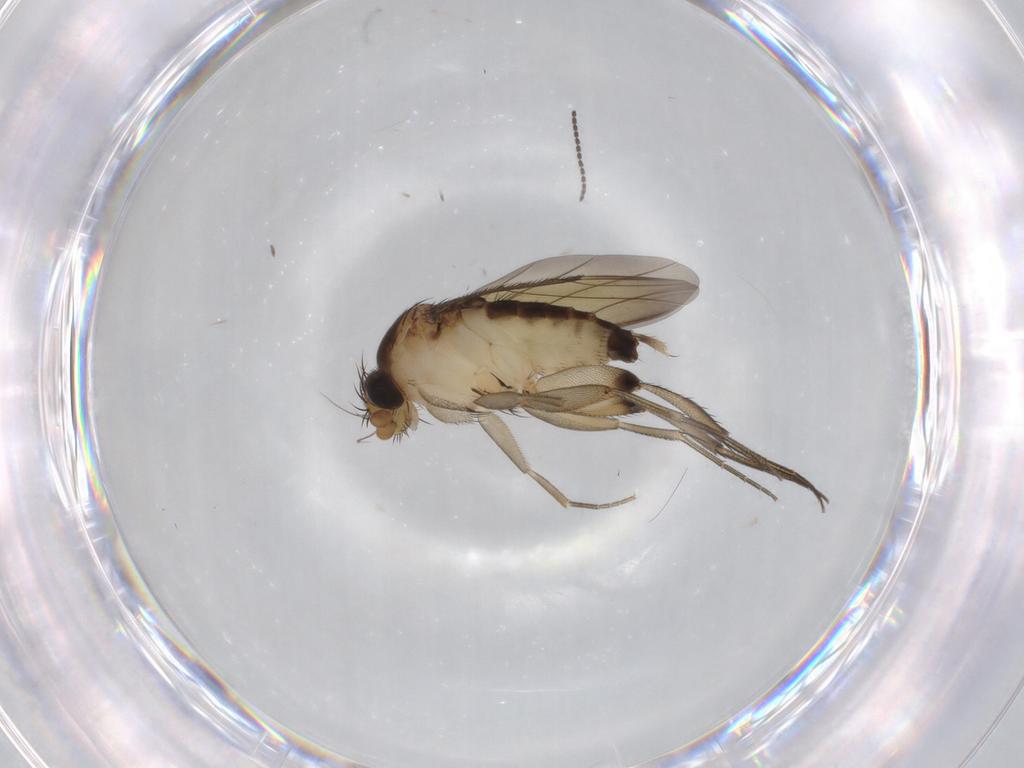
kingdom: Animalia
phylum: Arthropoda
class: Insecta
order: Diptera
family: Phoridae
